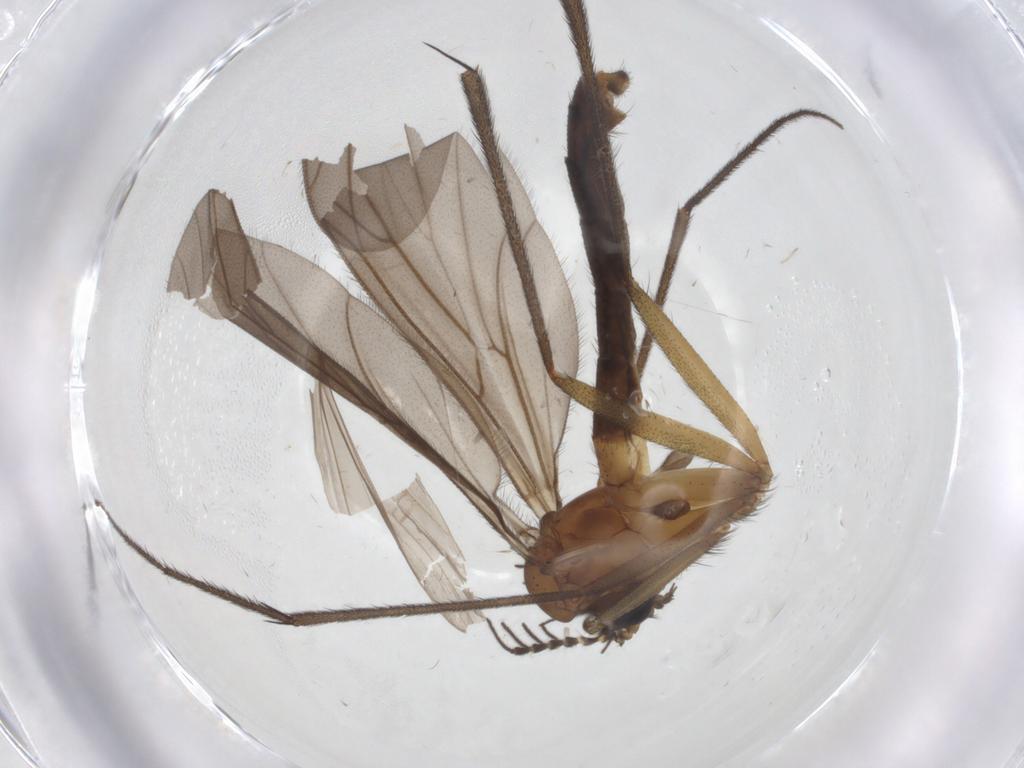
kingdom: Animalia
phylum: Arthropoda
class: Insecta
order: Diptera
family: Ditomyiidae
